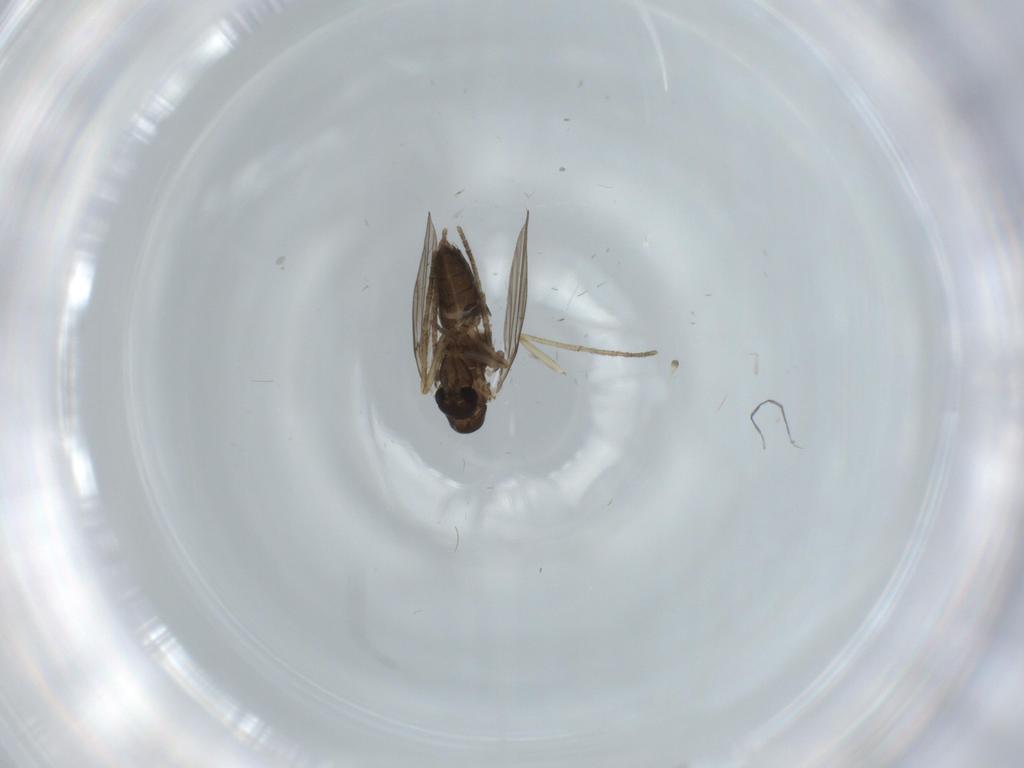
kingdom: Animalia
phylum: Arthropoda
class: Insecta
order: Diptera
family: Cecidomyiidae
